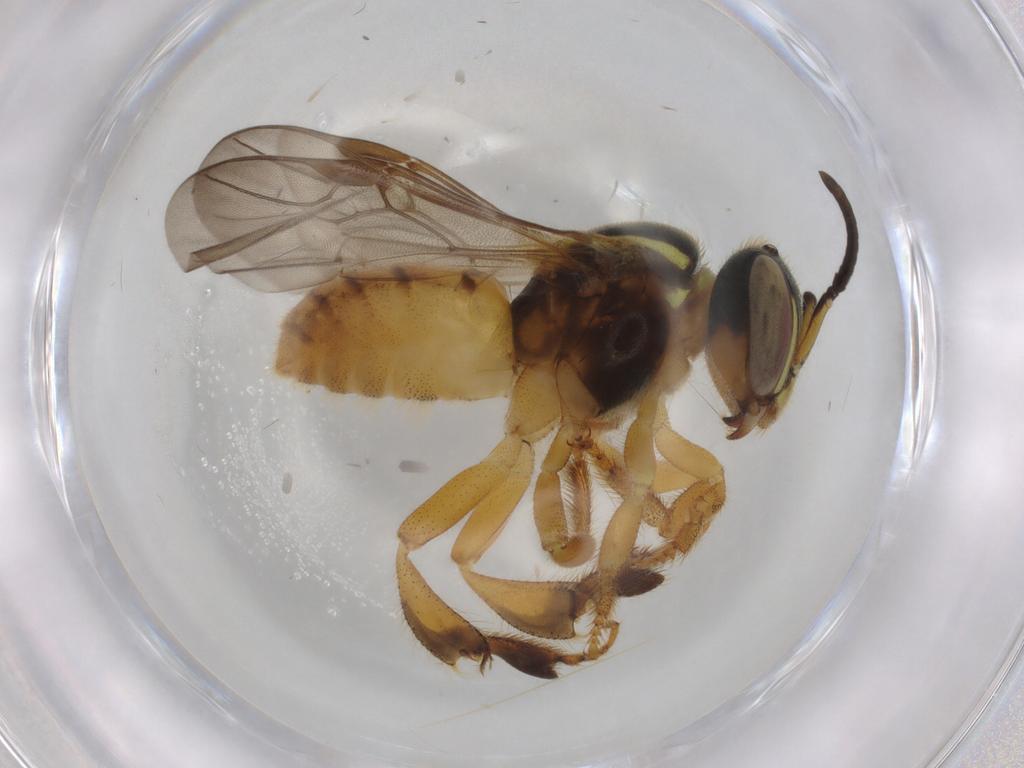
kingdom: Animalia
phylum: Arthropoda
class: Insecta
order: Hymenoptera
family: Apidae
